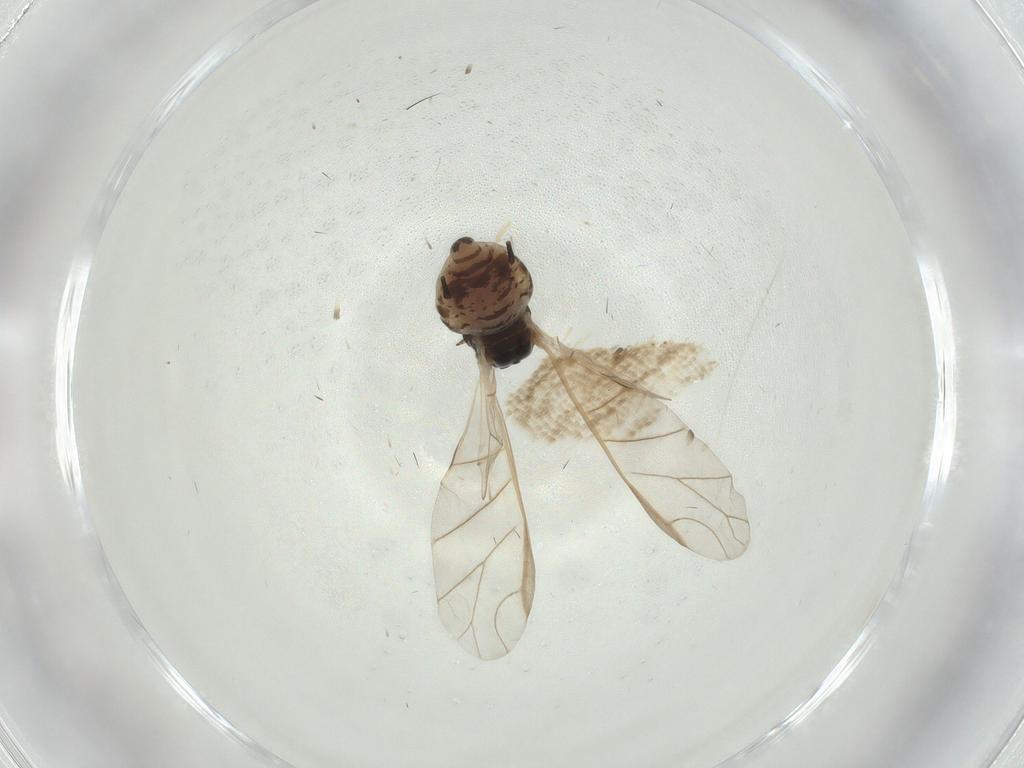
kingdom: Animalia
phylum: Arthropoda
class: Insecta
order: Hemiptera
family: Aphididae
